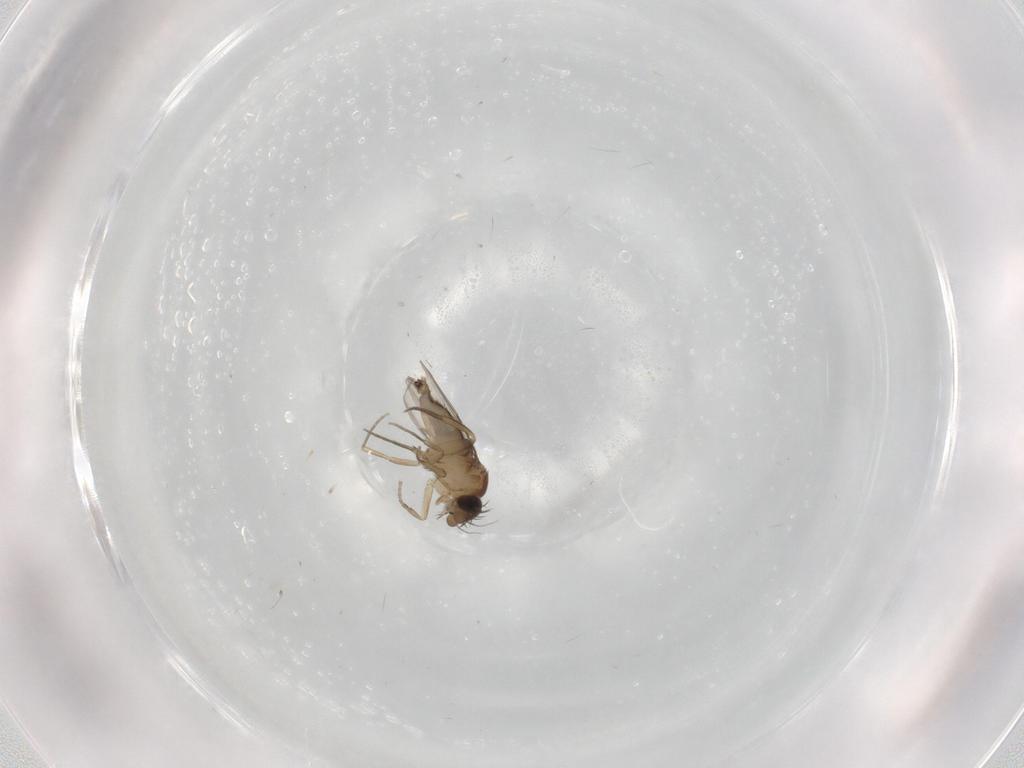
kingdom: Animalia
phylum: Arthropoda
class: Insecta
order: Diptera
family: Phoridae
